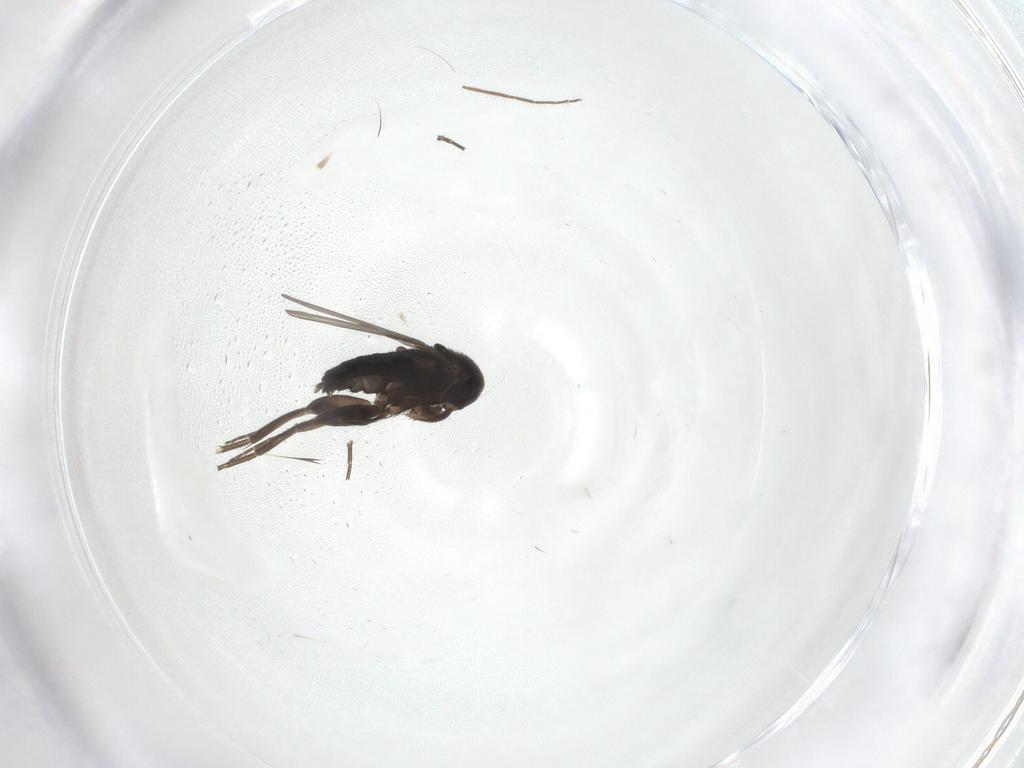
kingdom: Animalia
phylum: Arthropoda
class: Insecta
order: Diptera
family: Phoridae
